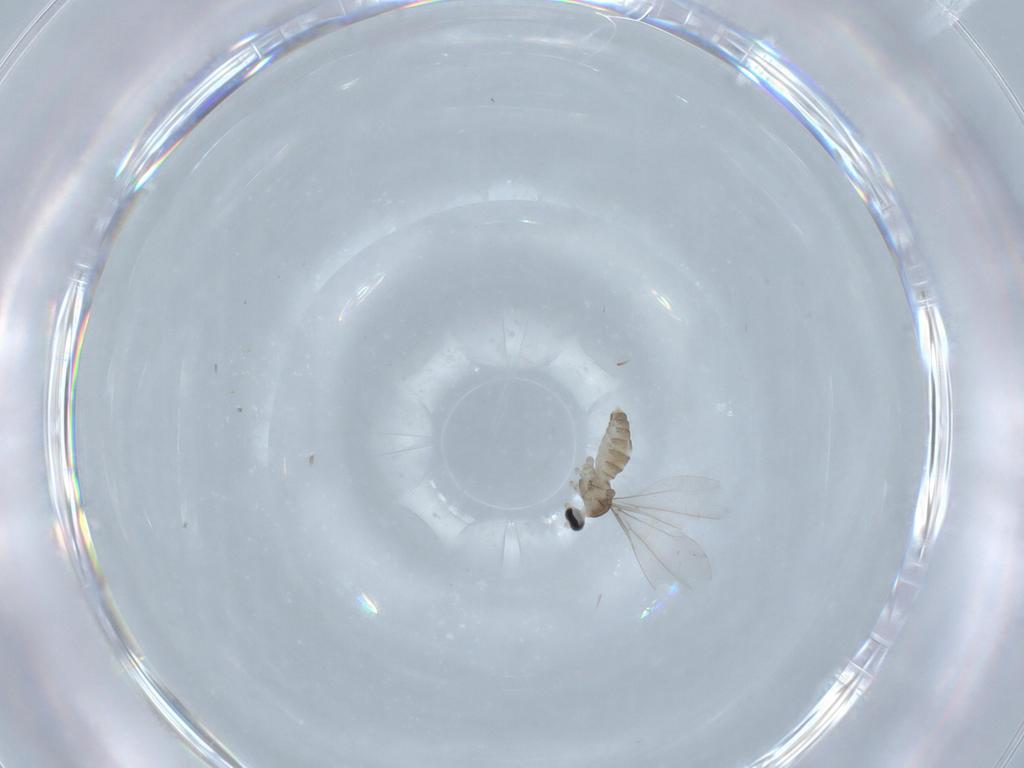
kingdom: Animalia
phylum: Arthropoda
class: Insecta
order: Diptera
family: Cecidomyiidae
